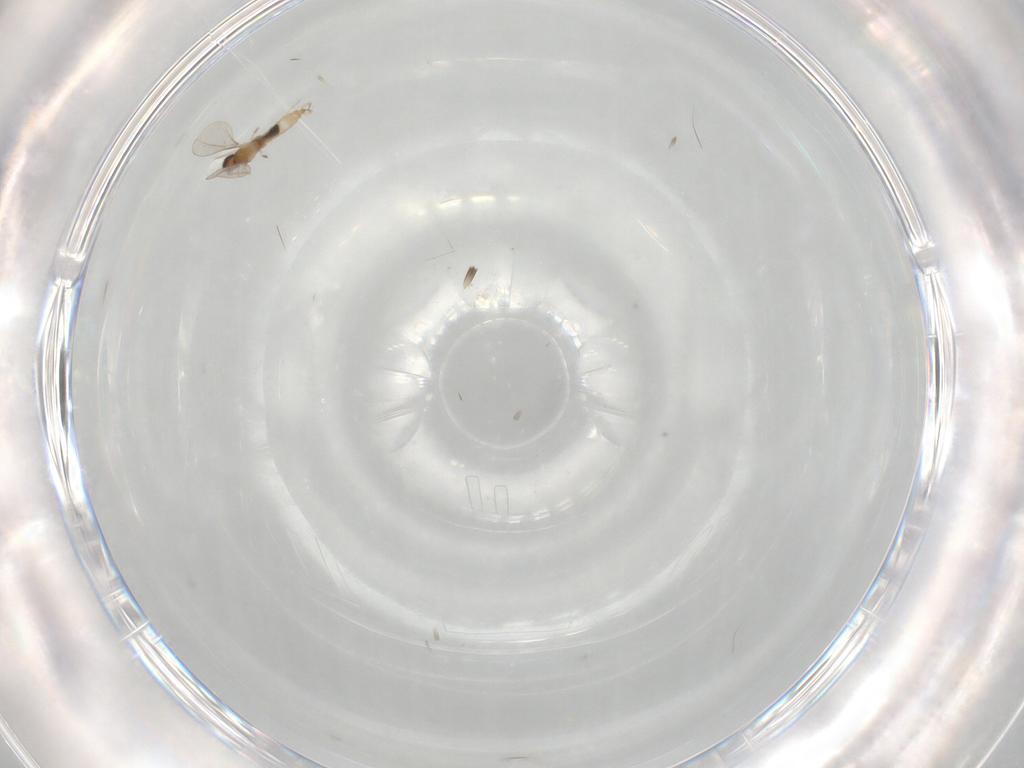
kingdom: Animalia
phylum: Arthropoda
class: Insecta
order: Diptera
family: Cecidomyiidae
